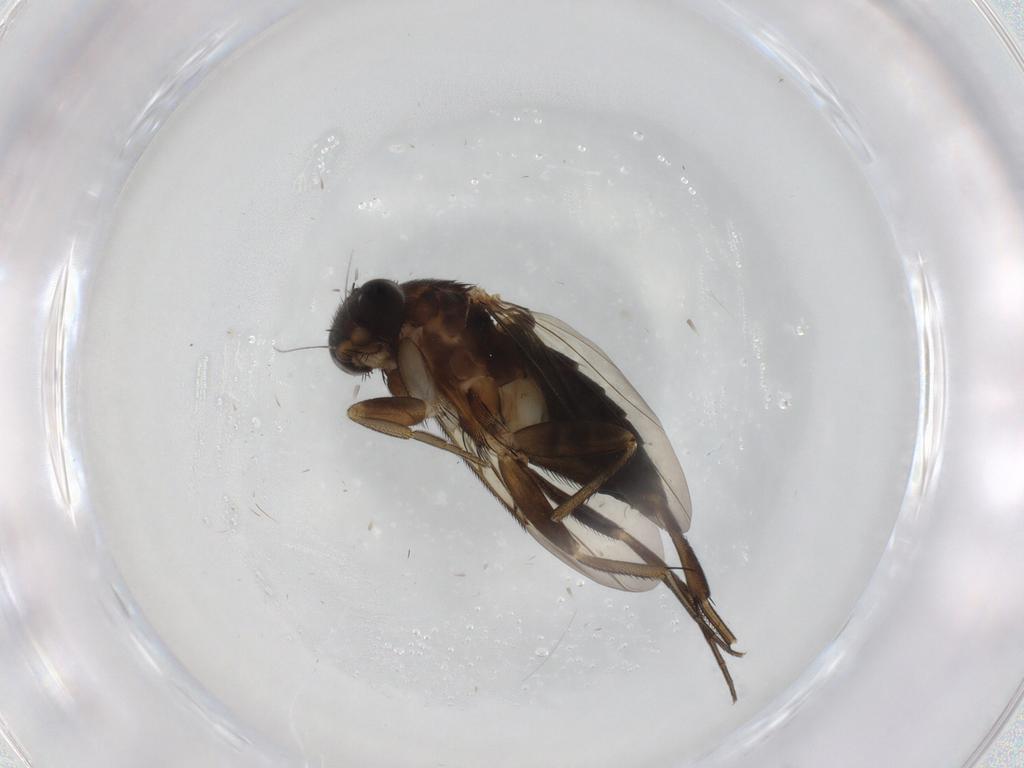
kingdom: Animalia
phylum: Arthropoda
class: Insecta
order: Diptera
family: Phoridae
